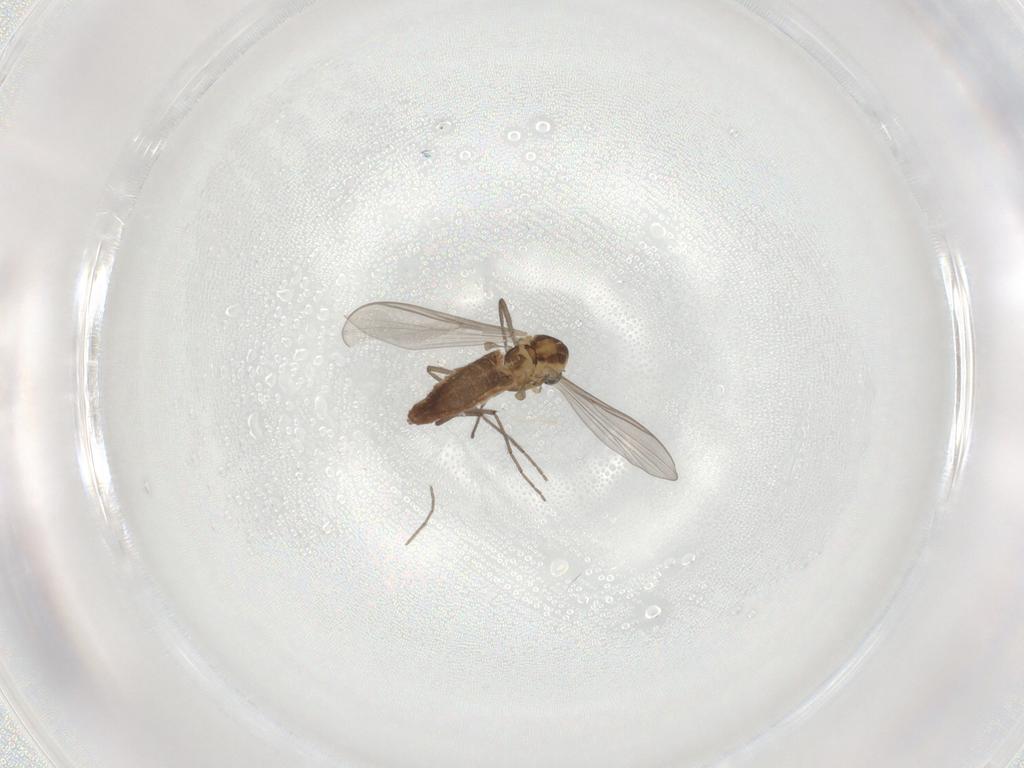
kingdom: Animalia
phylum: Arthropoda
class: Insecta
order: Diptera
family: Chironomidae
